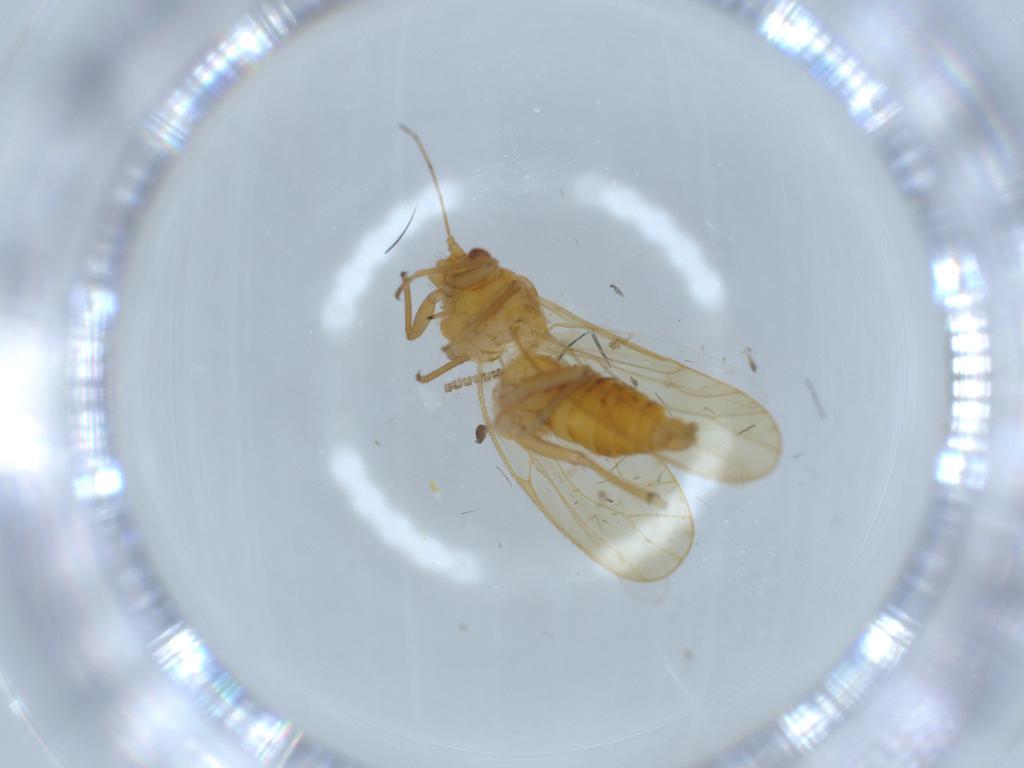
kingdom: Animalia
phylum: Arthropoda
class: Insecta
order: Hemiptera
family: Psyllidae
